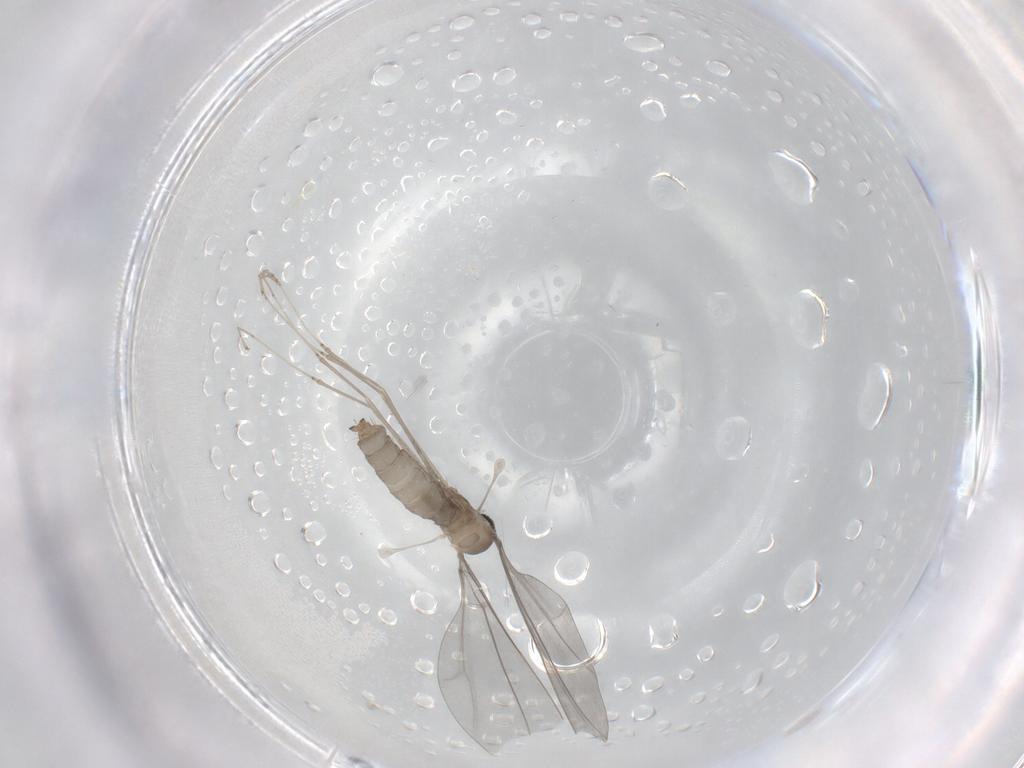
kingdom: Animalia
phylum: Arthropoda
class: Insecta
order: Diptera
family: Cecidomyiidae
